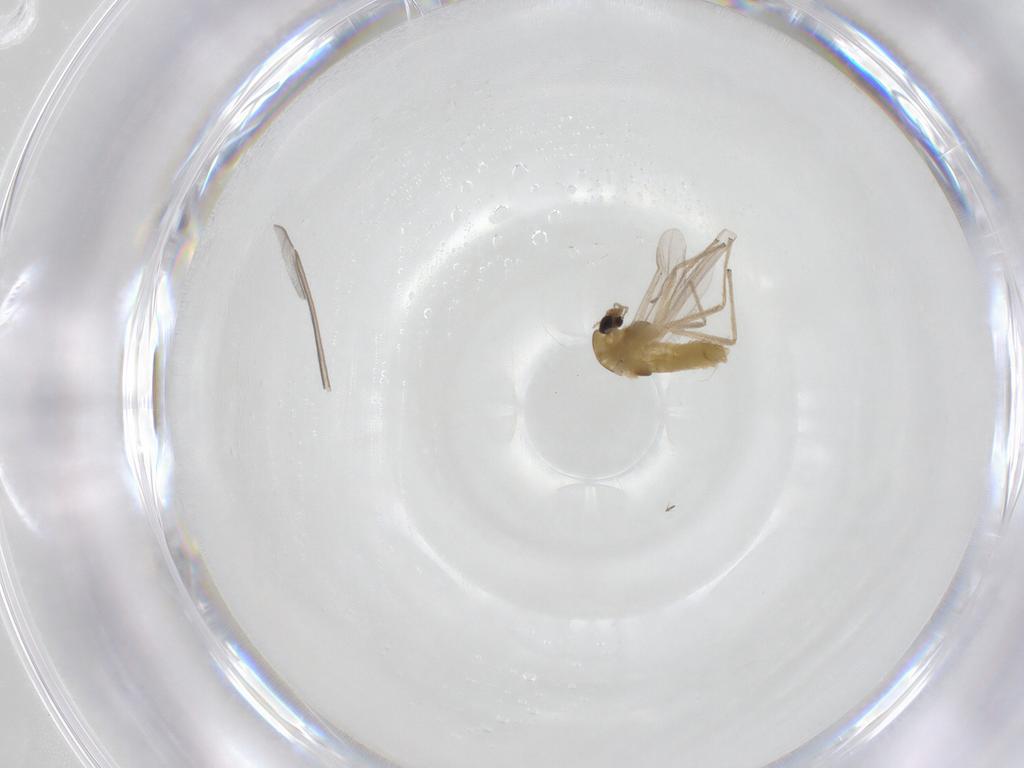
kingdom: Animalia
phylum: Arthropoda
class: Insecta
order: Diptera
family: Chironomidae
